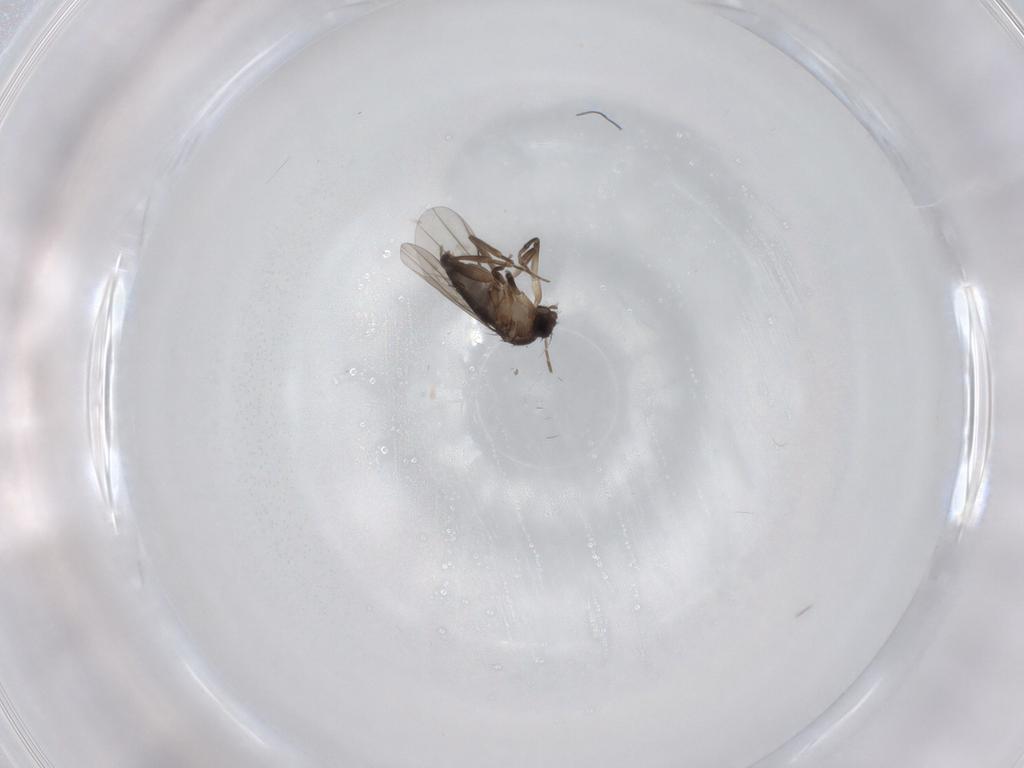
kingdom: Animalia
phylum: Arthropoda
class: Insecta
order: Diptera
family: Phoridae
